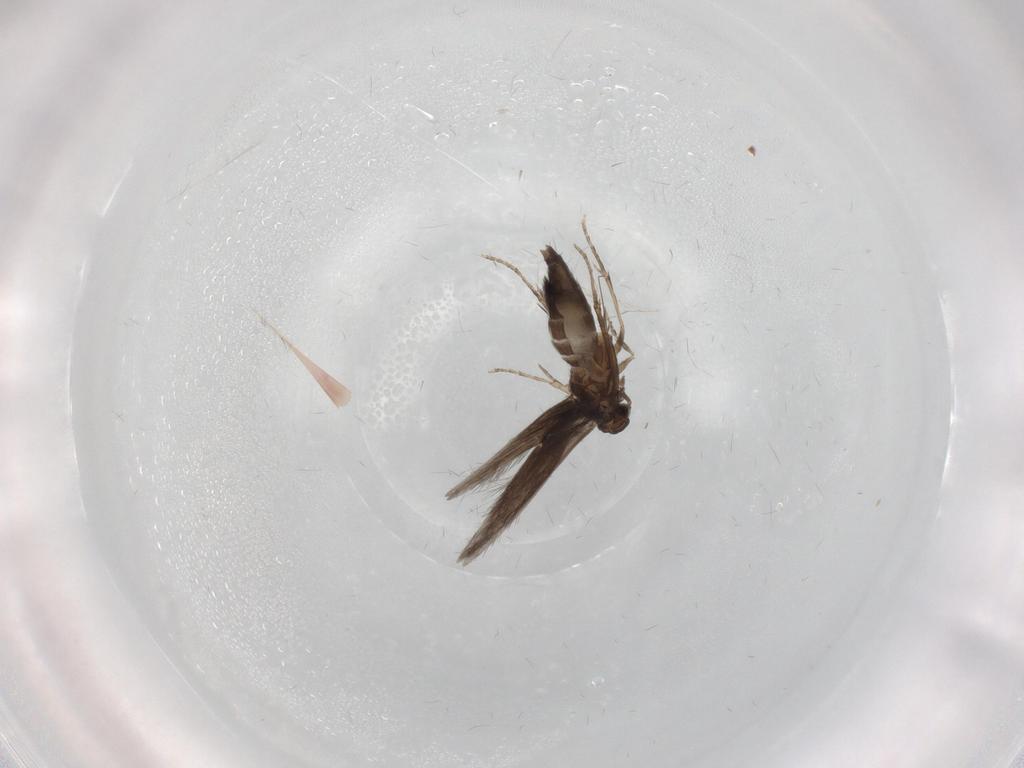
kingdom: Animalia
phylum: Arthropoda
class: Insecta
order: Trichoptera
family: Hydroptilidae
